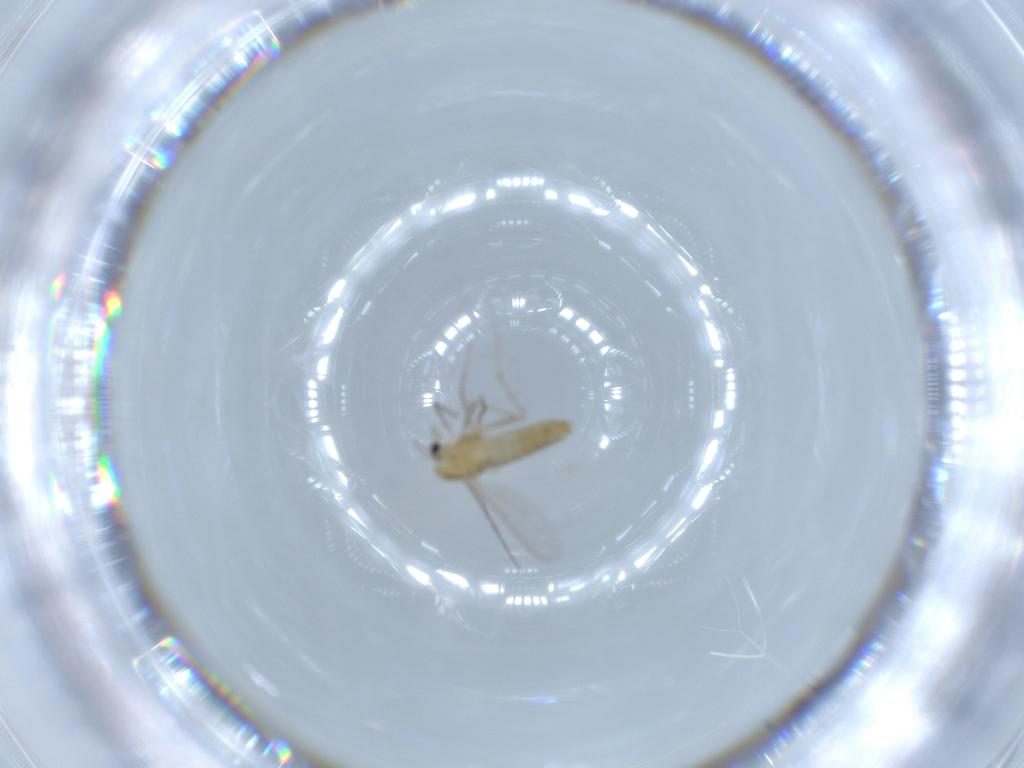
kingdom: Animalia
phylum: Arthropoda
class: Insecta
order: Diptera
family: Chironomidae
